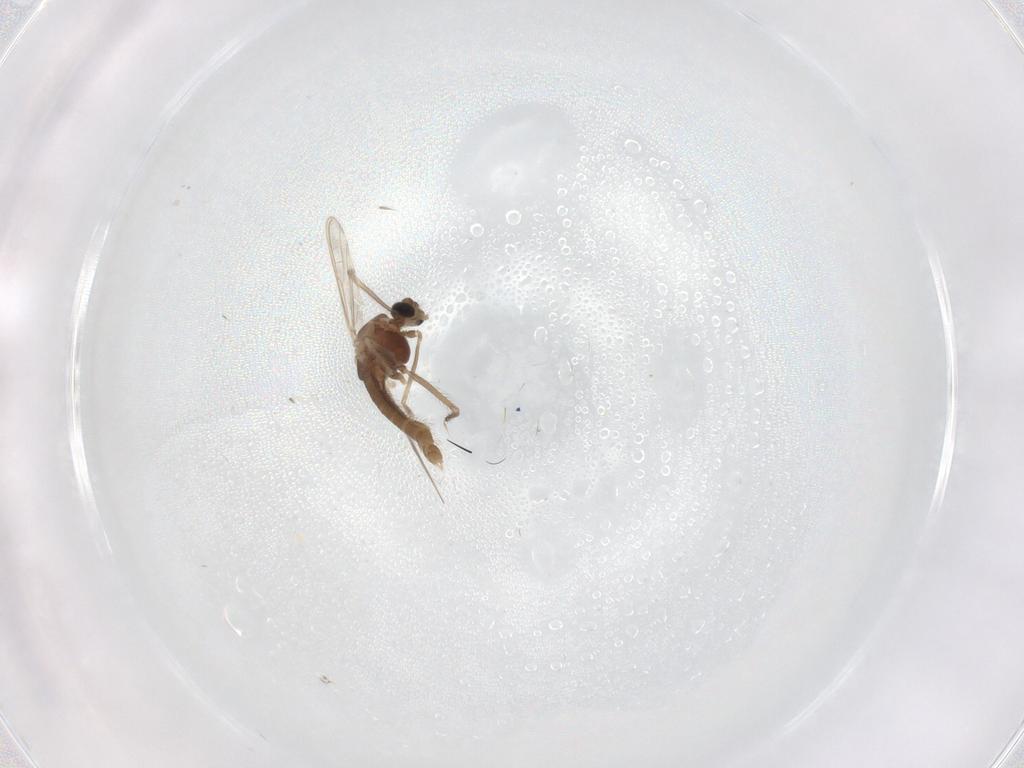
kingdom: Animalia
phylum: Arthropoda
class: Insecta
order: Diptera
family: Chironomidae
